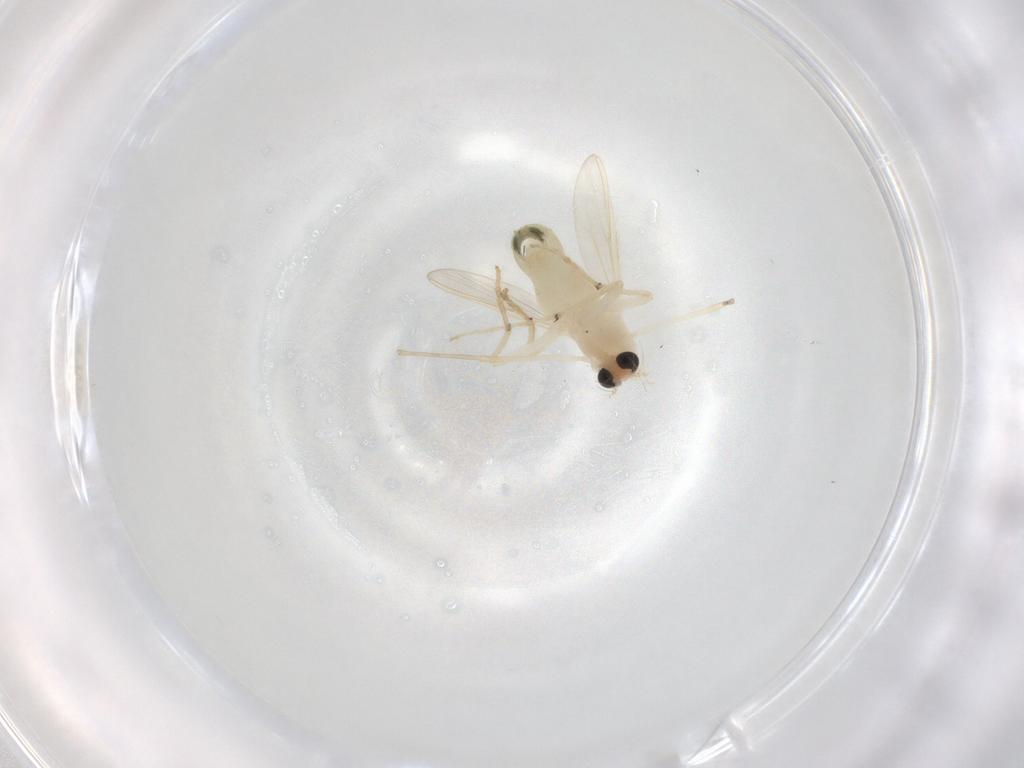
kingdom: Animalia
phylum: Arthropoda
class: Insecta
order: Diptera
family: Chironomidae
